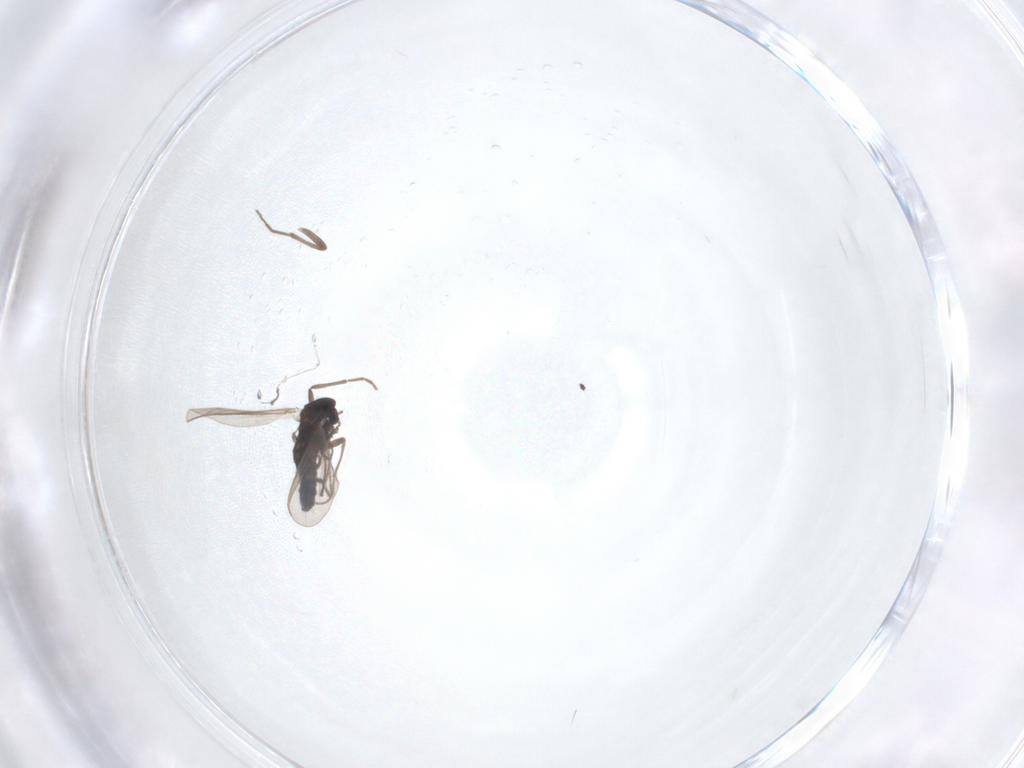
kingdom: Animalia
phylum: Arthropoda
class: Insecta
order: Diptera
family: Chironomidae
